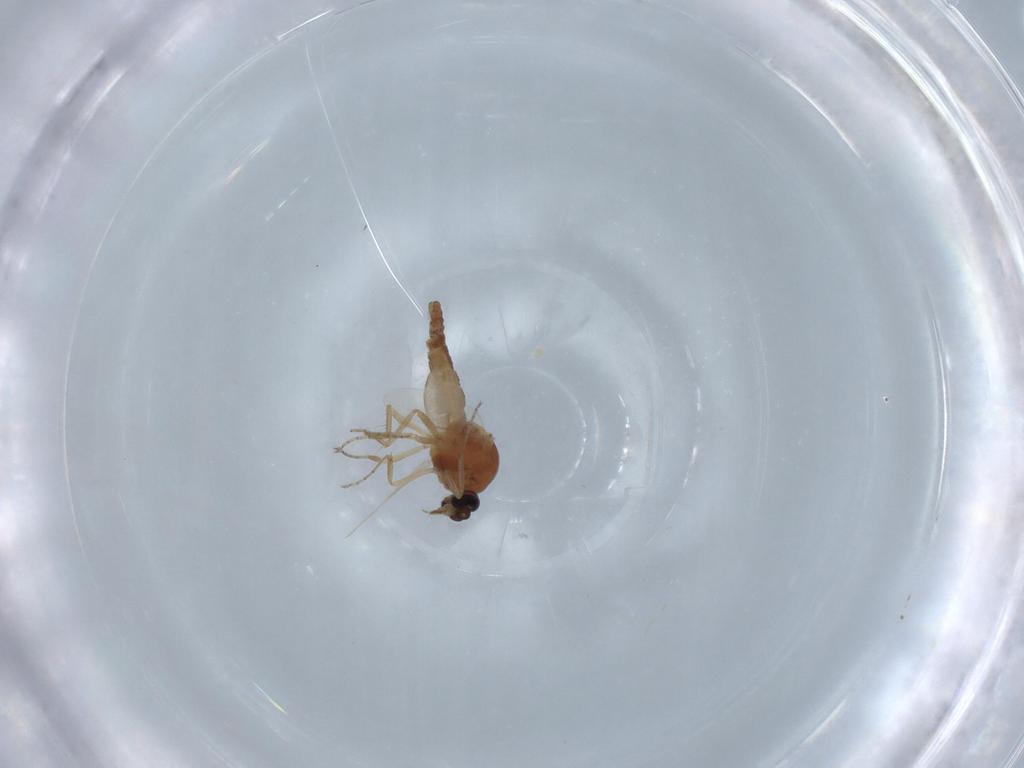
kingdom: Animalia
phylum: Arthropoda
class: Insecta
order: Diptera
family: Ceratopogonidae
